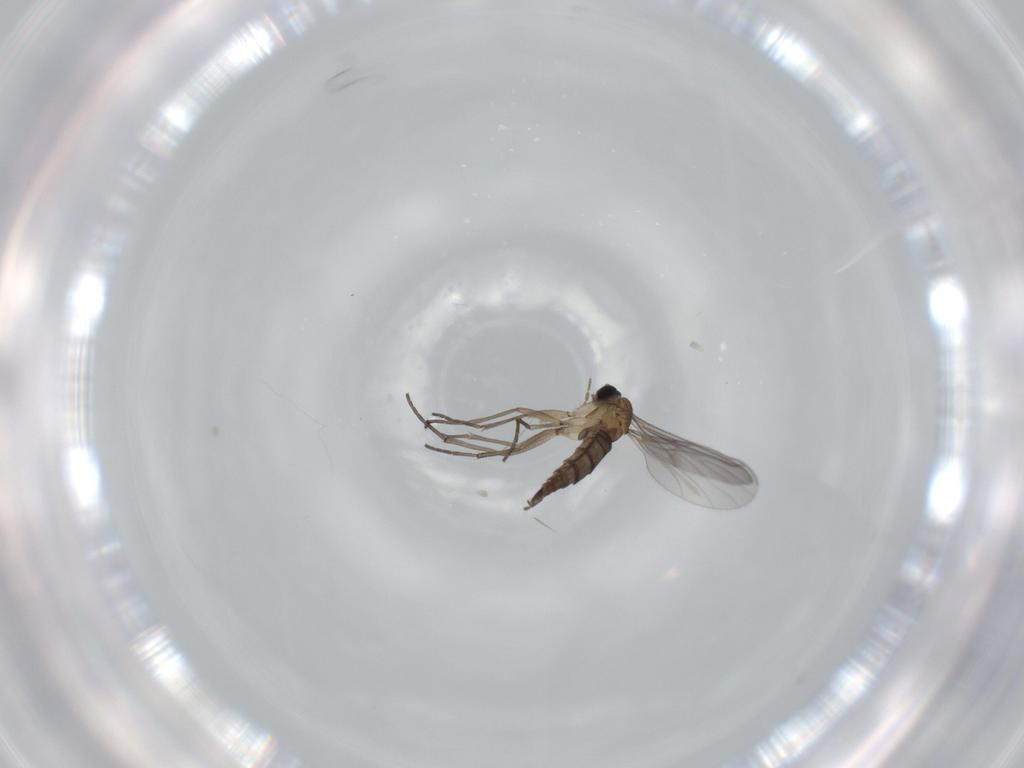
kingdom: Animalia
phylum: Arthropoda
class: Insecta
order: Diptera
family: Sciaridae
